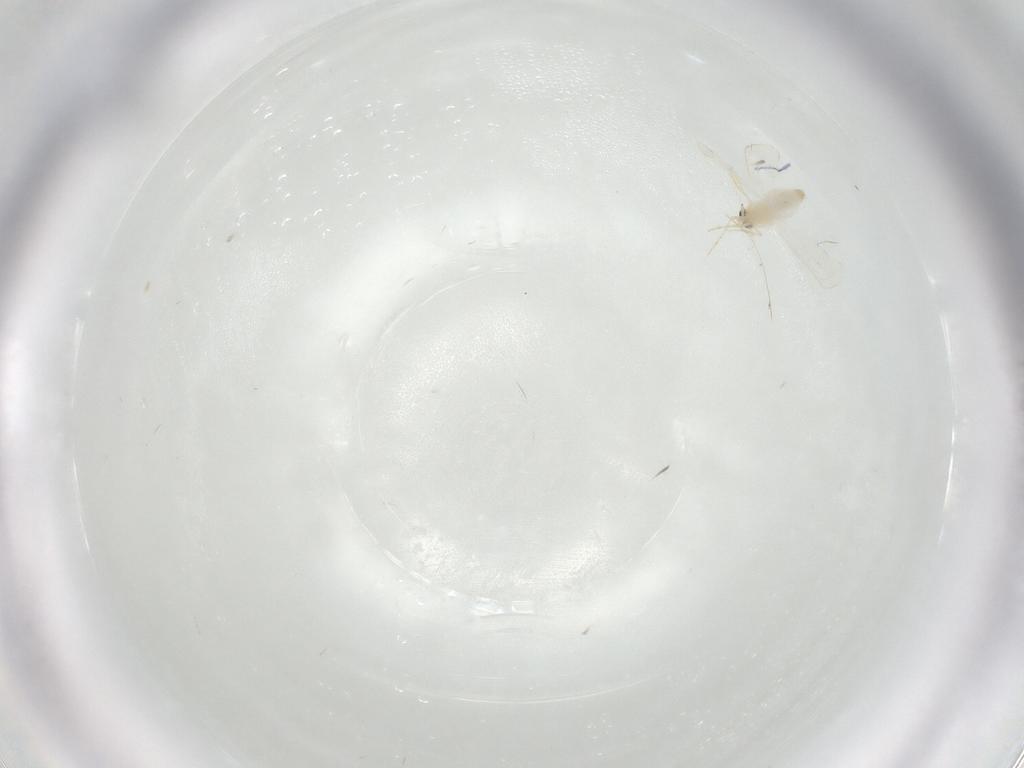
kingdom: Animalia
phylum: Arthropoda
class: Insecta
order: Hemiptera
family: Aleyrodidae
